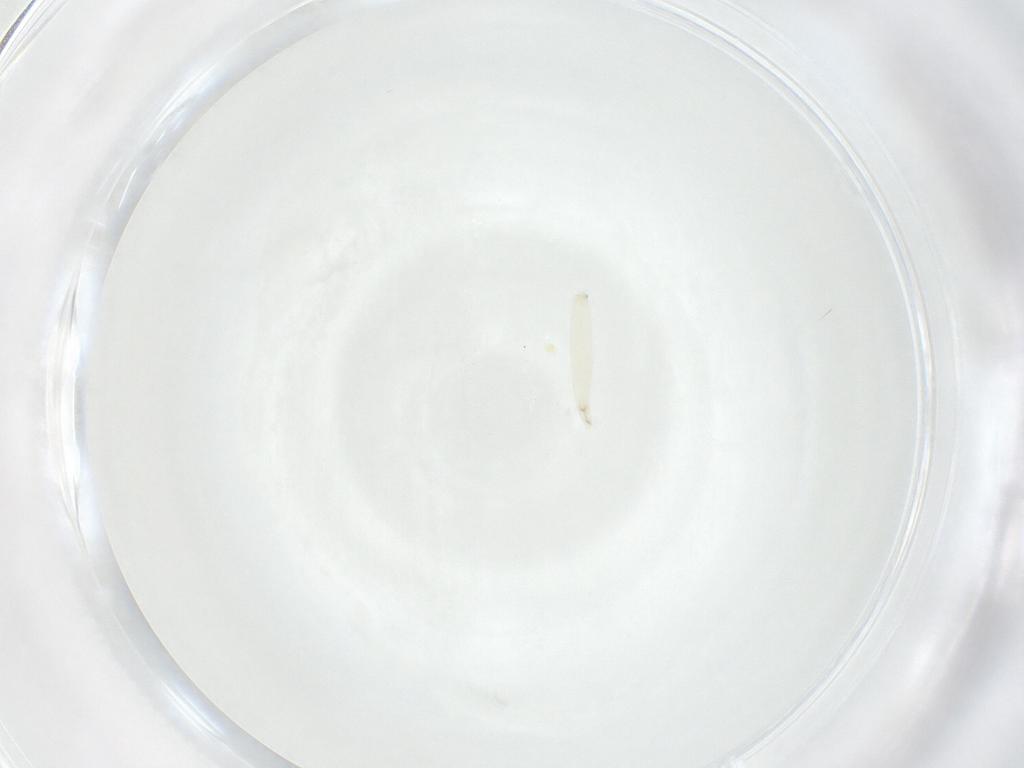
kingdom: Animalia
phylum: Arthropoda
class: Insecta
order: Diptera
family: Sarcophagidae
